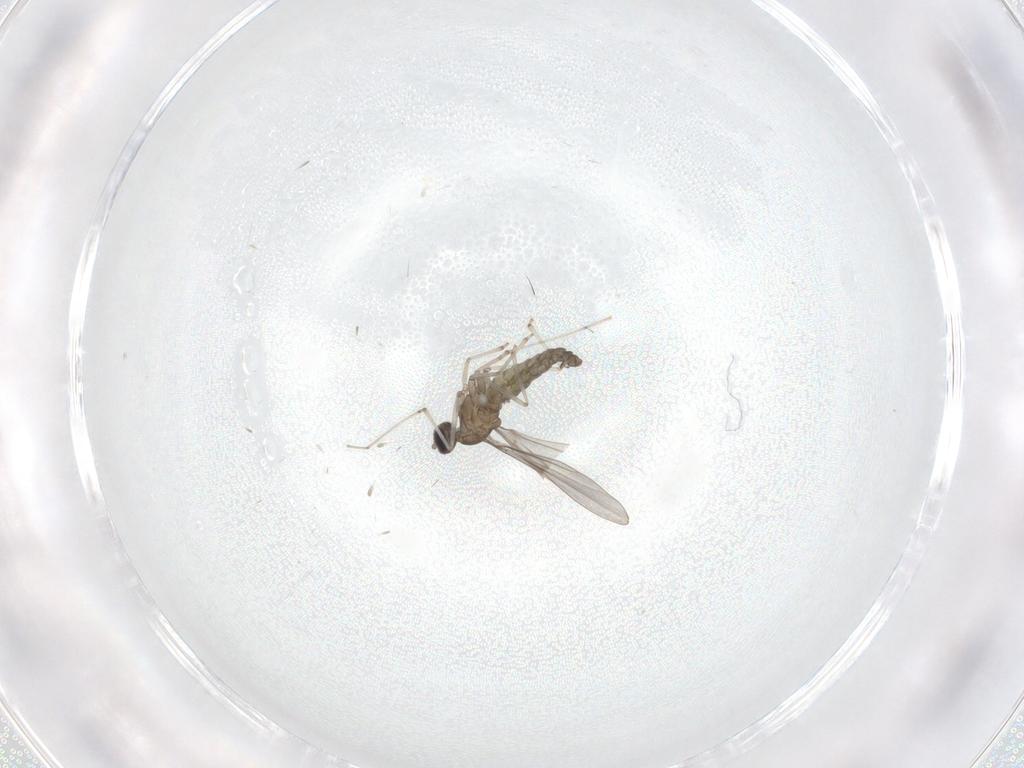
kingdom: Animalia
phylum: Arthropoda
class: Insecta
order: Diptera
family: Cecidomyiidae
